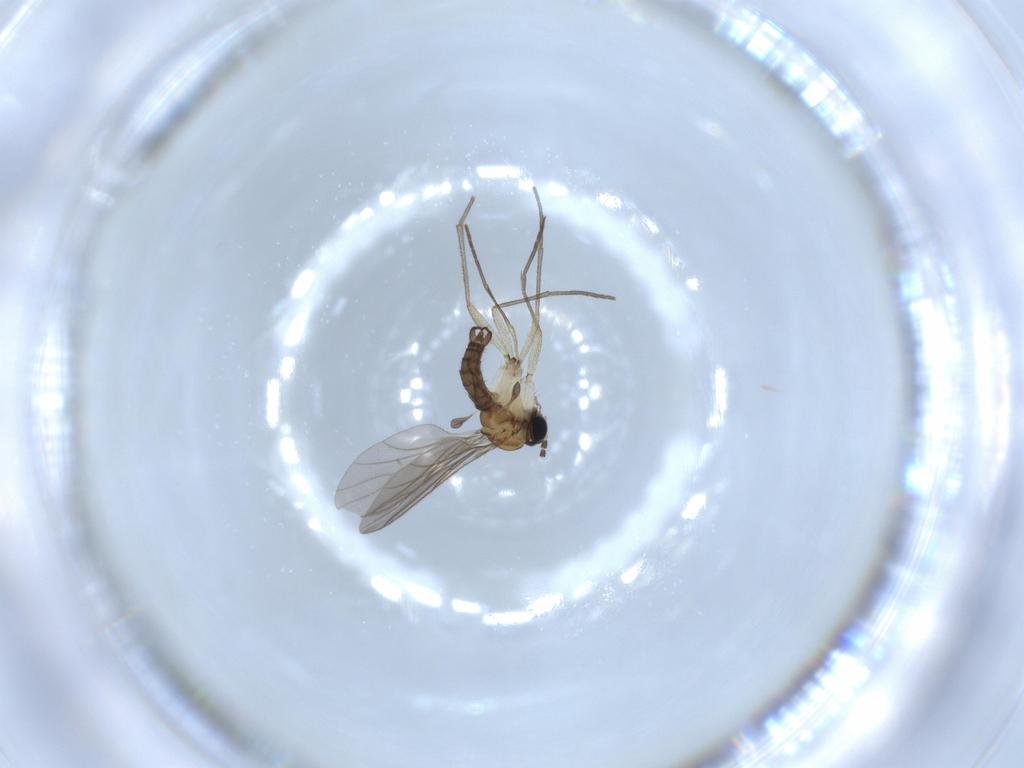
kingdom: Animalia
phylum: Arthropoda
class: Insecta
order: Diptera
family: Sciaridae
